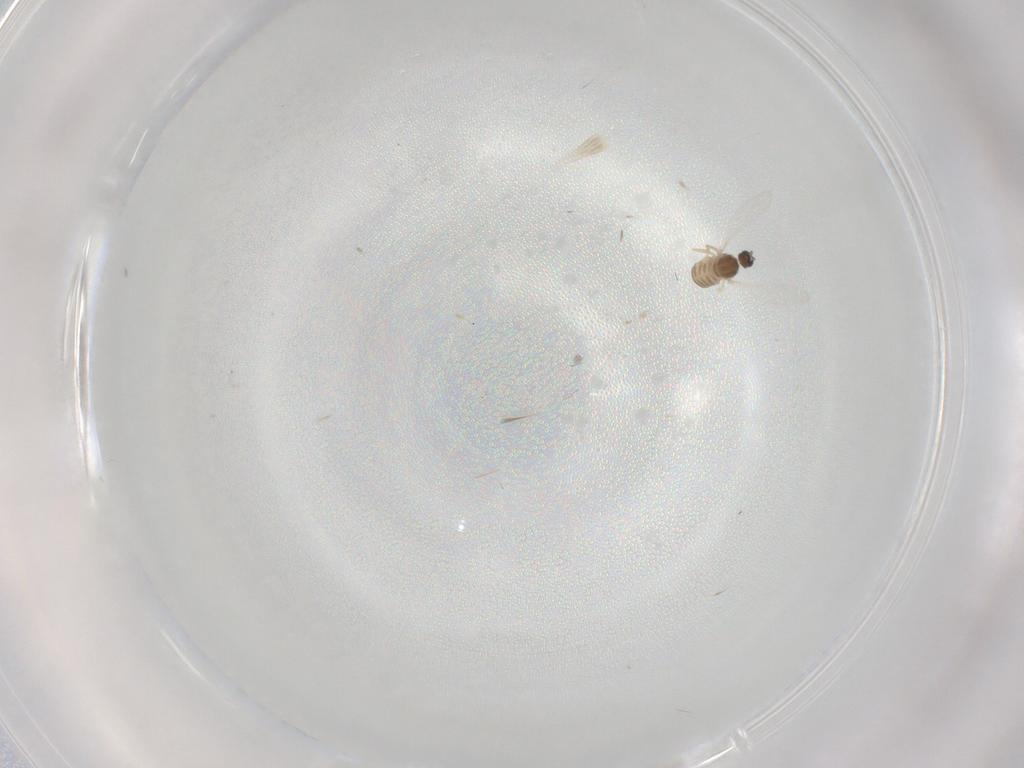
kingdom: Animalia
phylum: Arthropoda
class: Insecta
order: Diptera
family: Cecidomyiidae
